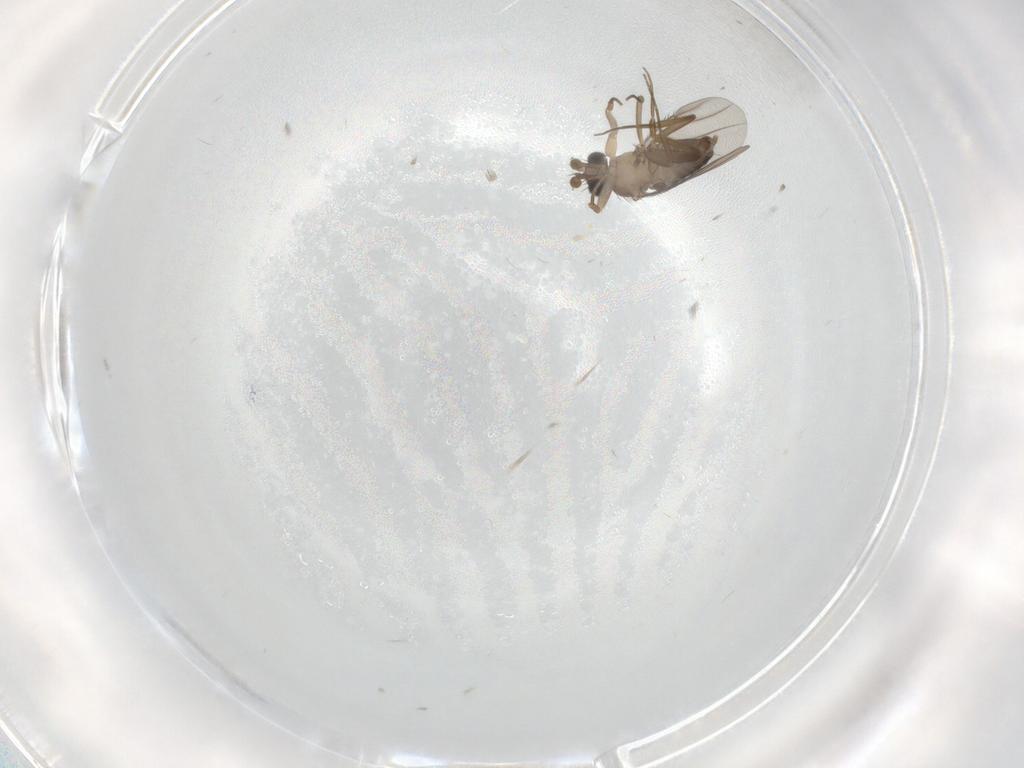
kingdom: Animalia
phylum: Arthropoda
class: Insecta
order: Diptera
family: Phoridae
